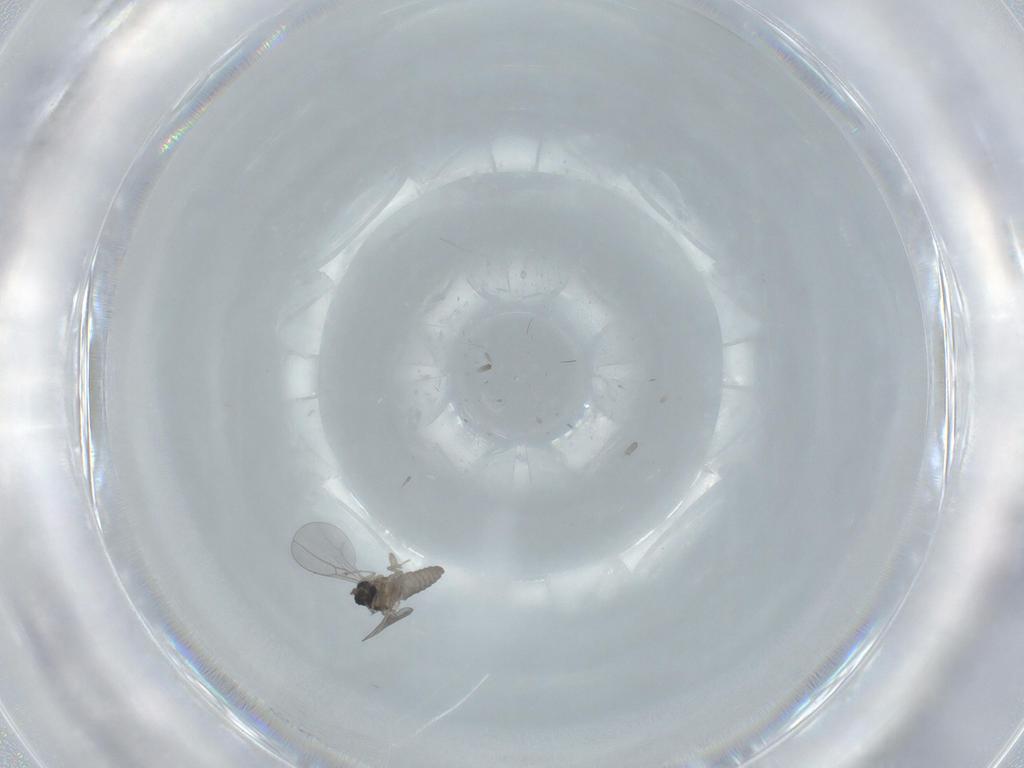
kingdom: Animalia
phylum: Arthropoda
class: Insecta
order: Diptera
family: Cecidomyiidae
